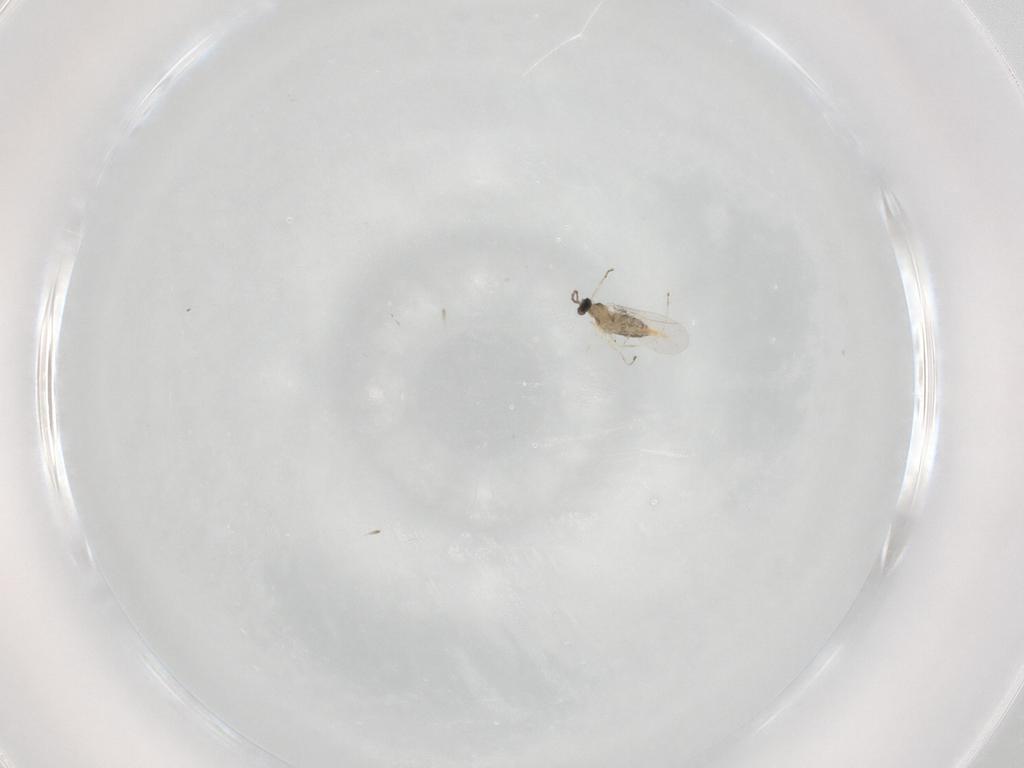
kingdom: Animalia
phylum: Arthropoda
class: Insecta
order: Diptera
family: Cecidomyiidae
